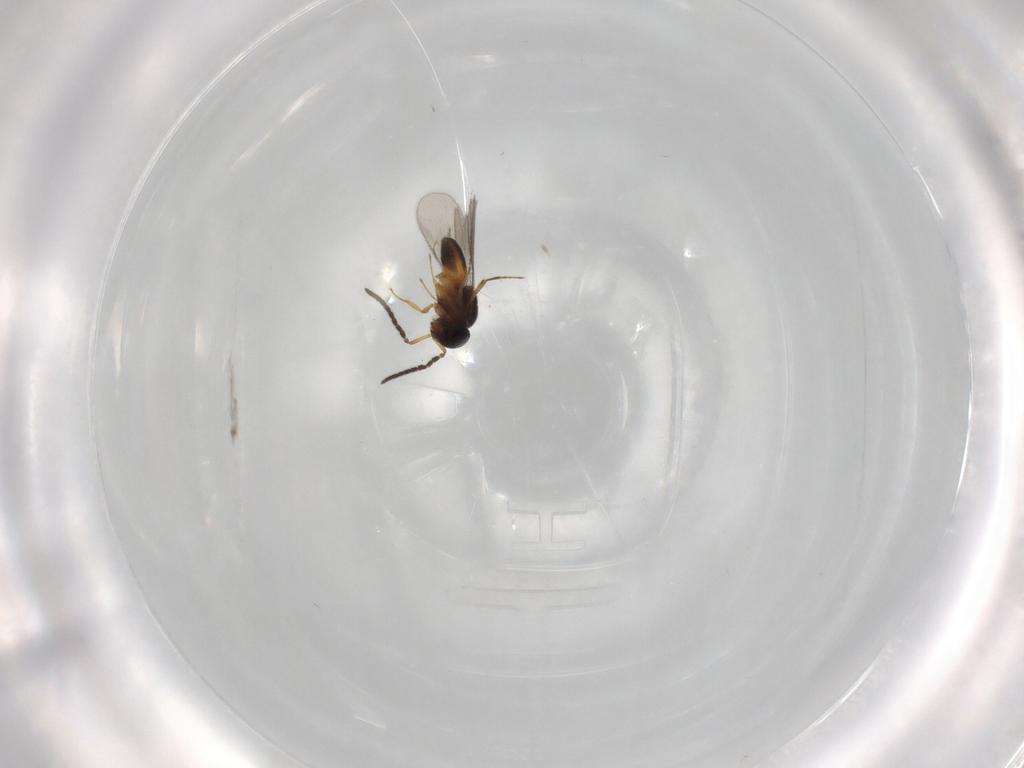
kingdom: Animalia
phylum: Arthropoda
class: Insecta
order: Hymenoptera
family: Scelionidae
